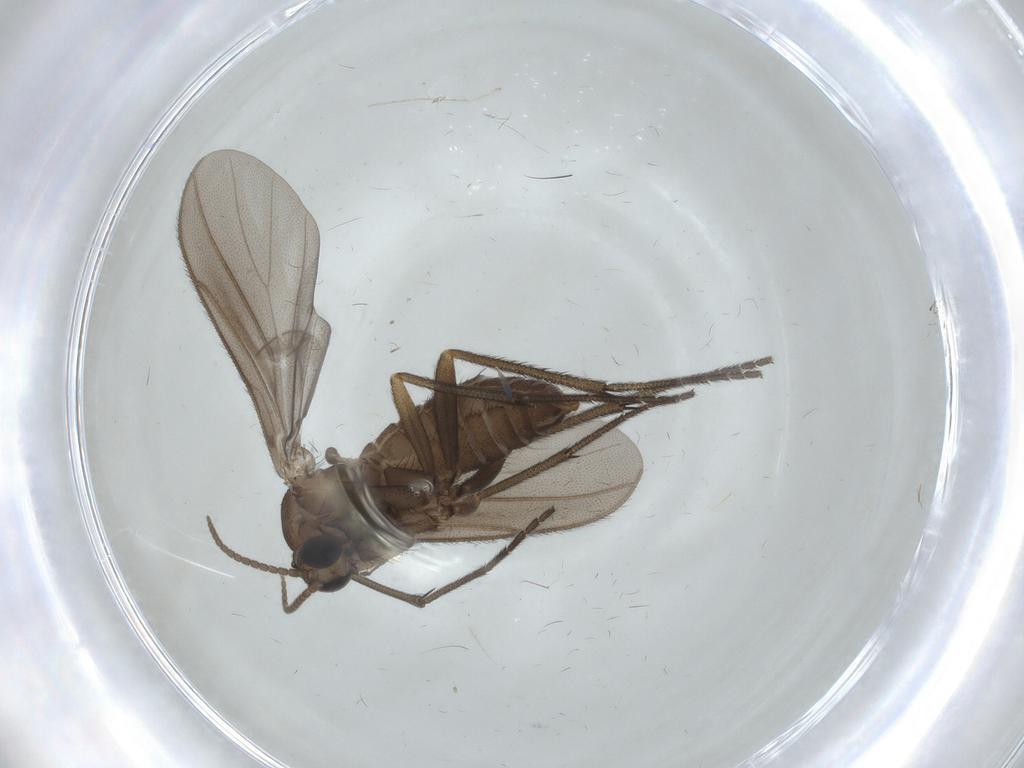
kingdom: Animalia
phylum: Arthropoda
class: Insecta
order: Diptera
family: Diadocidiidae
